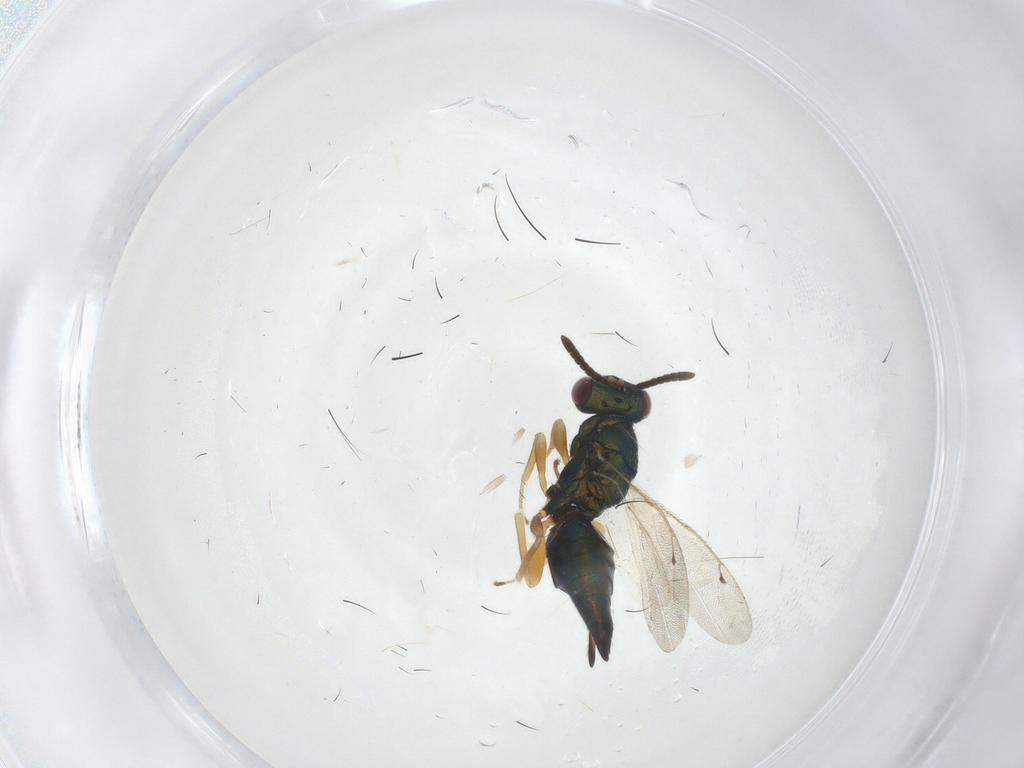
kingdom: Animalia
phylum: Arthropoda
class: Insecta
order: Hymenoptera
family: Pteromalidae
